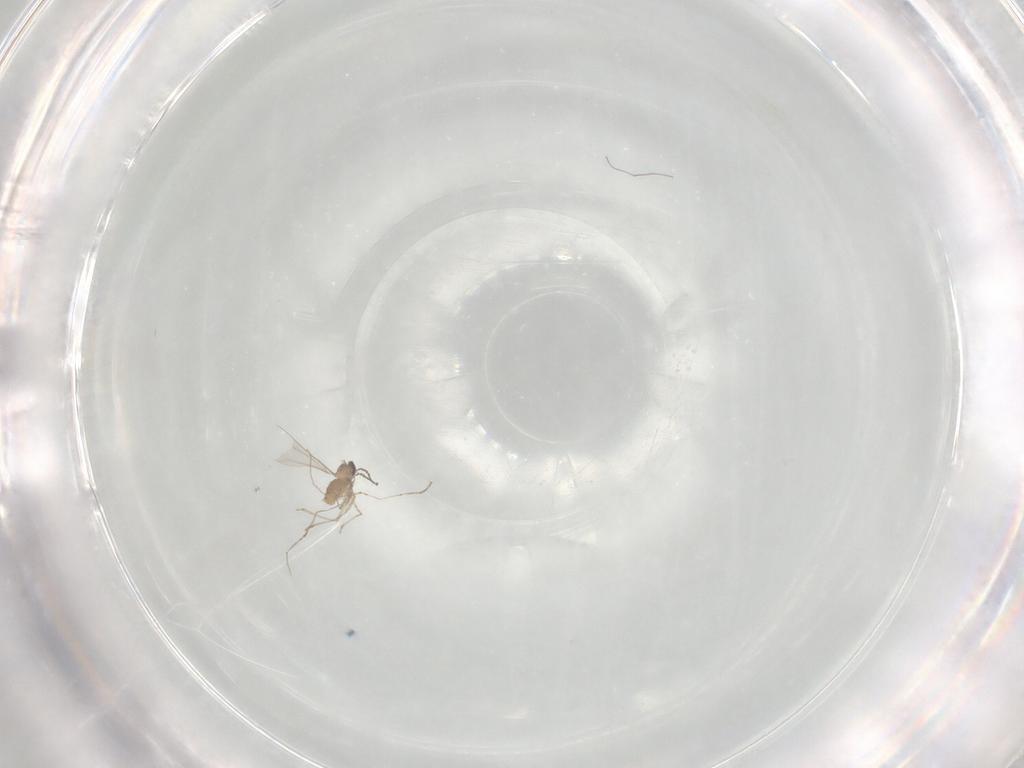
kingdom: Animalia
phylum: Arthropoda
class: Insecta
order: Diptera
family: Cecidomyiidae
